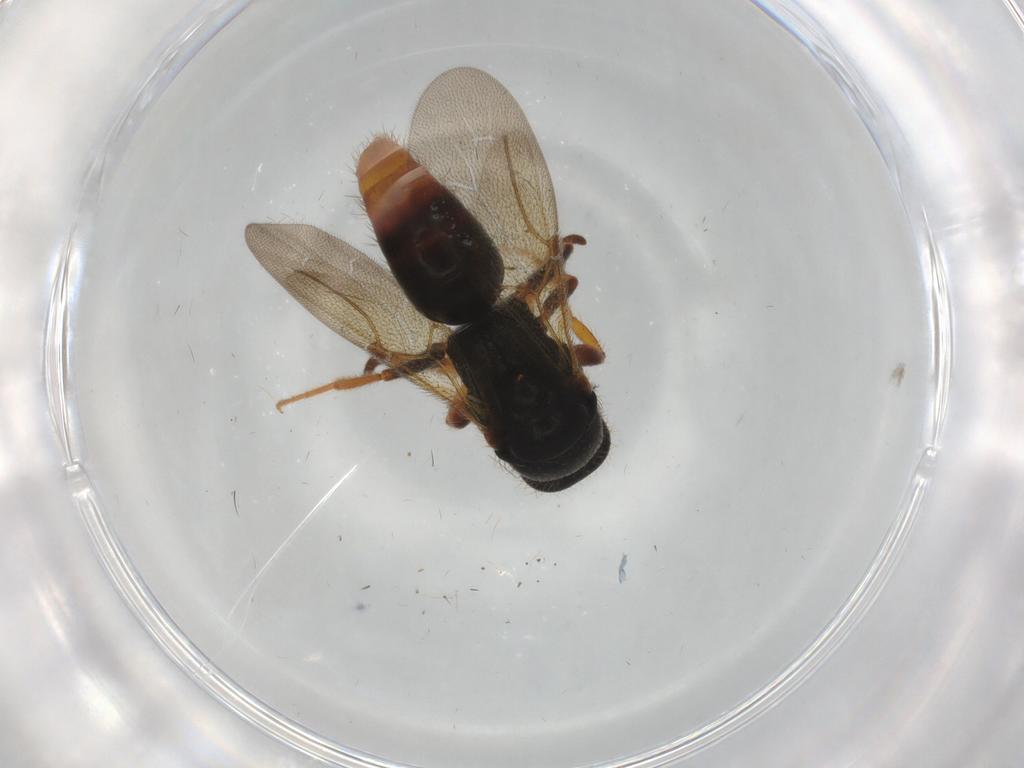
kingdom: Animalia
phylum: Arthropoda
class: Insecta
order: Hymenoptera
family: Bethylidae
